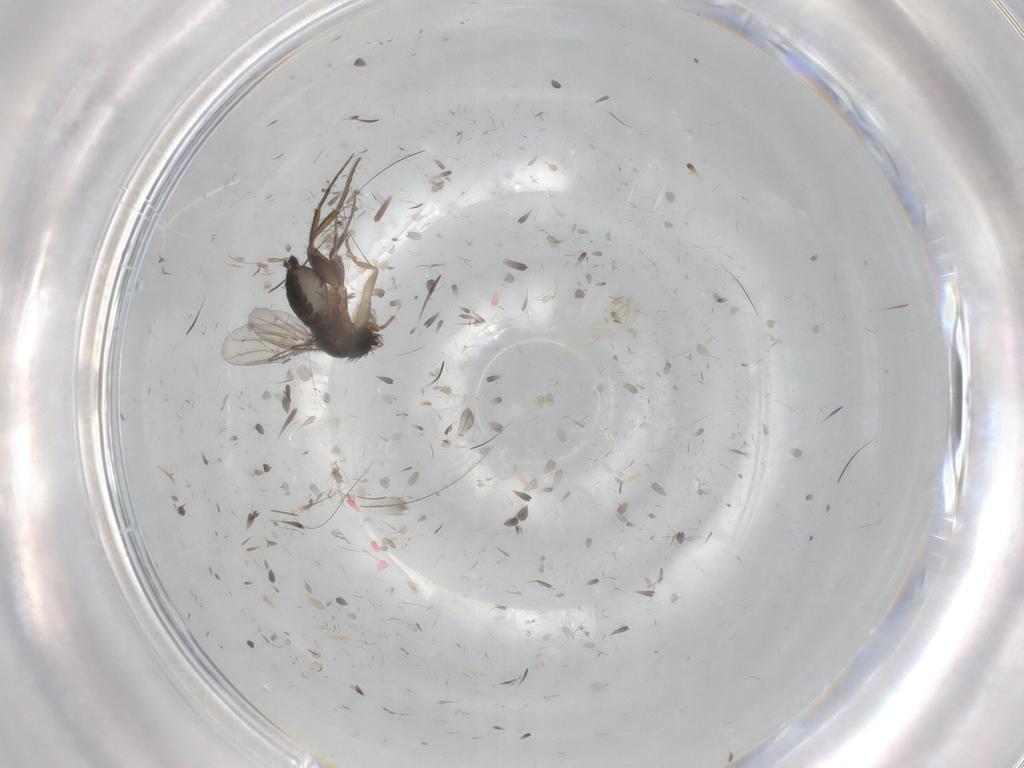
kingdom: Animalia
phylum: Arthropoda
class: Insecta
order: Diptera
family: Phoridae
